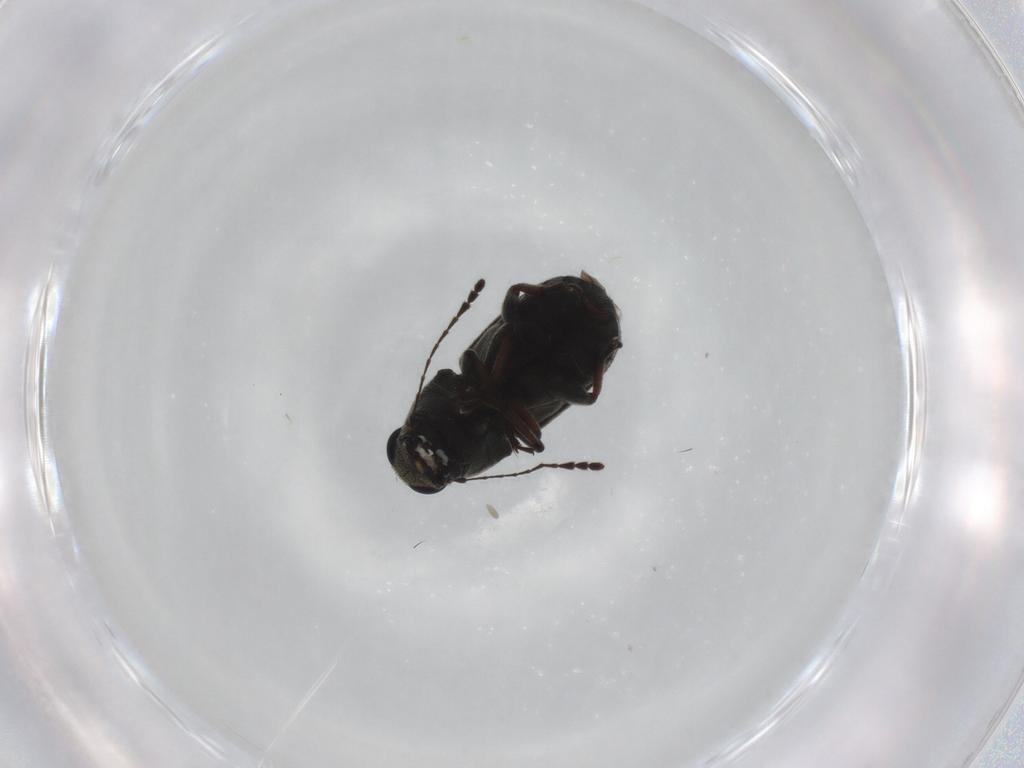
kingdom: Animalia
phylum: Arthropoda
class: Insecta
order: Coleoptera
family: Anthribidae
